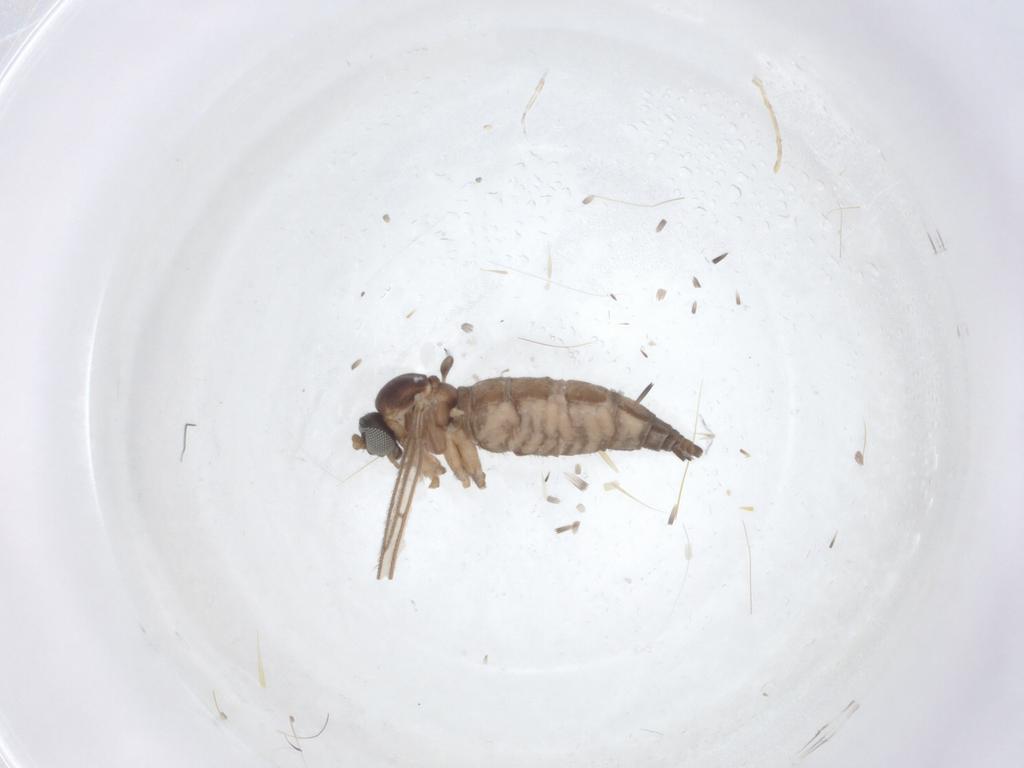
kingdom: Animalia
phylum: Arthropoda
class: Insecta
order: Diptera
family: Sciaridae
